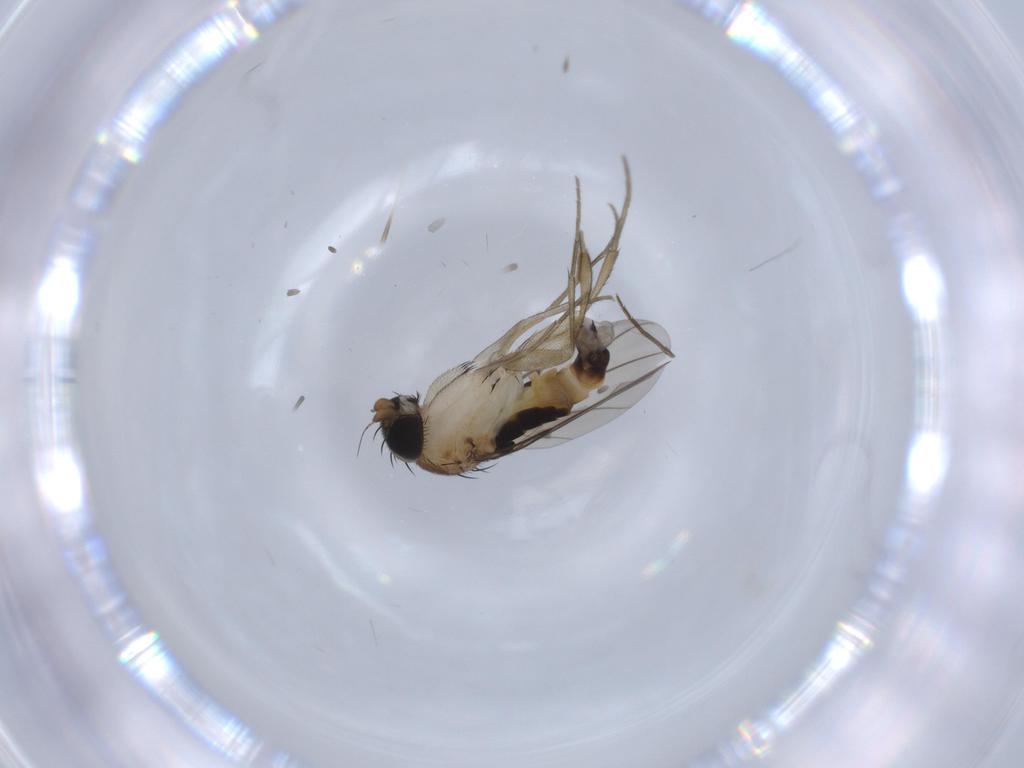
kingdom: Animalia
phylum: Arthropoda
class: Insecta
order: Diptera
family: Phoridae
